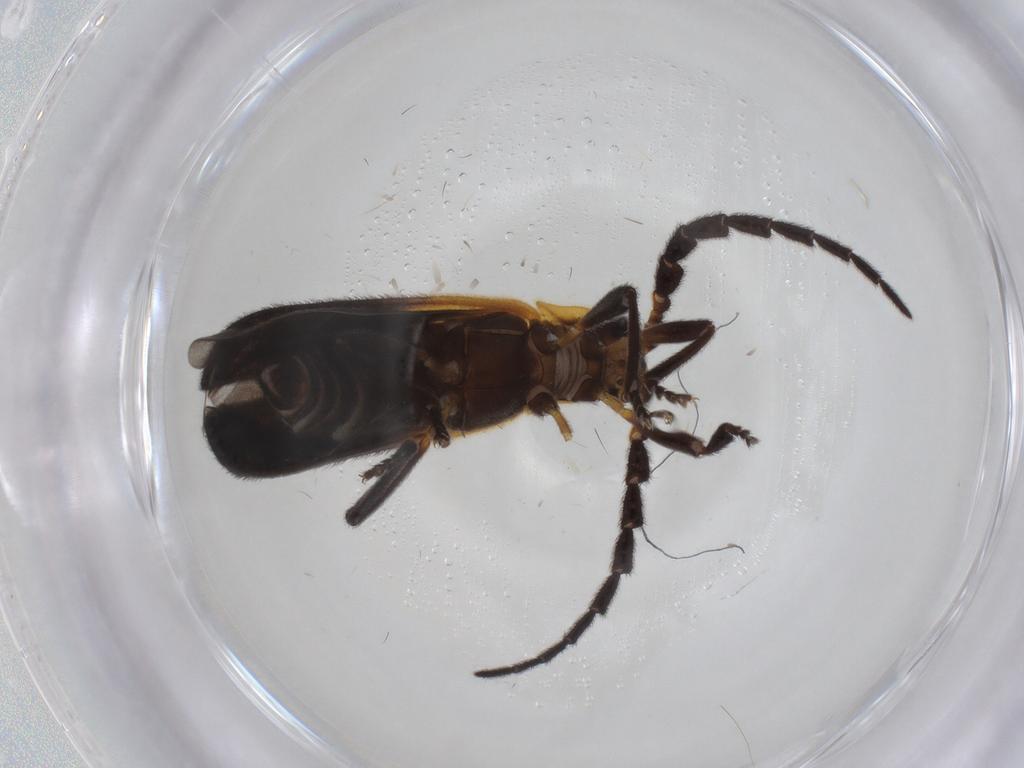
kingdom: Animalia
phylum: Arthropoda
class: Insecta
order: Coleoptera
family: Lycidae
